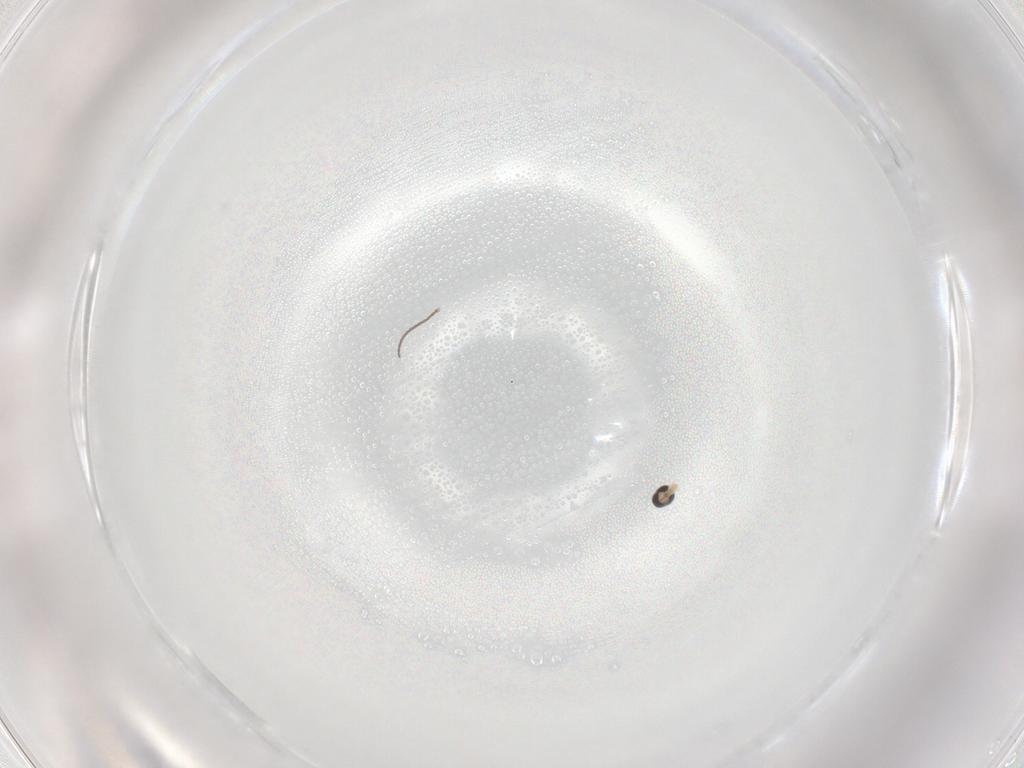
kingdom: Animalia
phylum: Arthropoda
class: Insecta
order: Diptera
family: Cecidomyiidae
